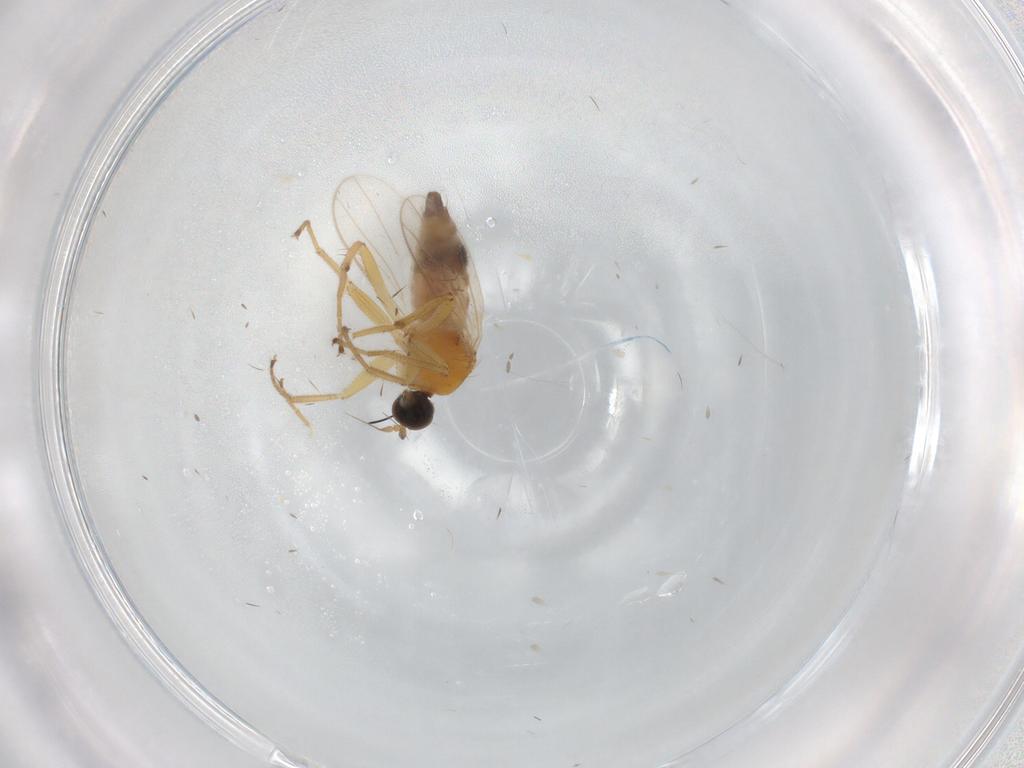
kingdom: Animalia
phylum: Arthropoda
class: Insecta
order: Diptera
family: Hybotidae
